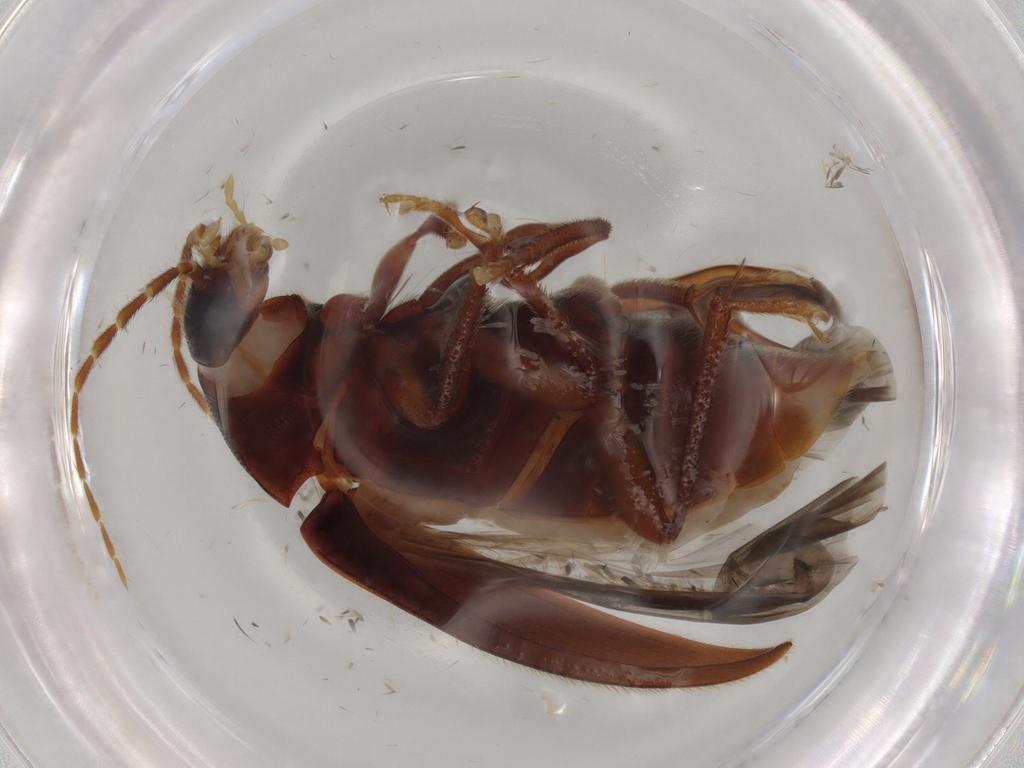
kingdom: Animalia
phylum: Arthropoda
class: Insecta
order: Coleoptera
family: Ptilodactylidae
